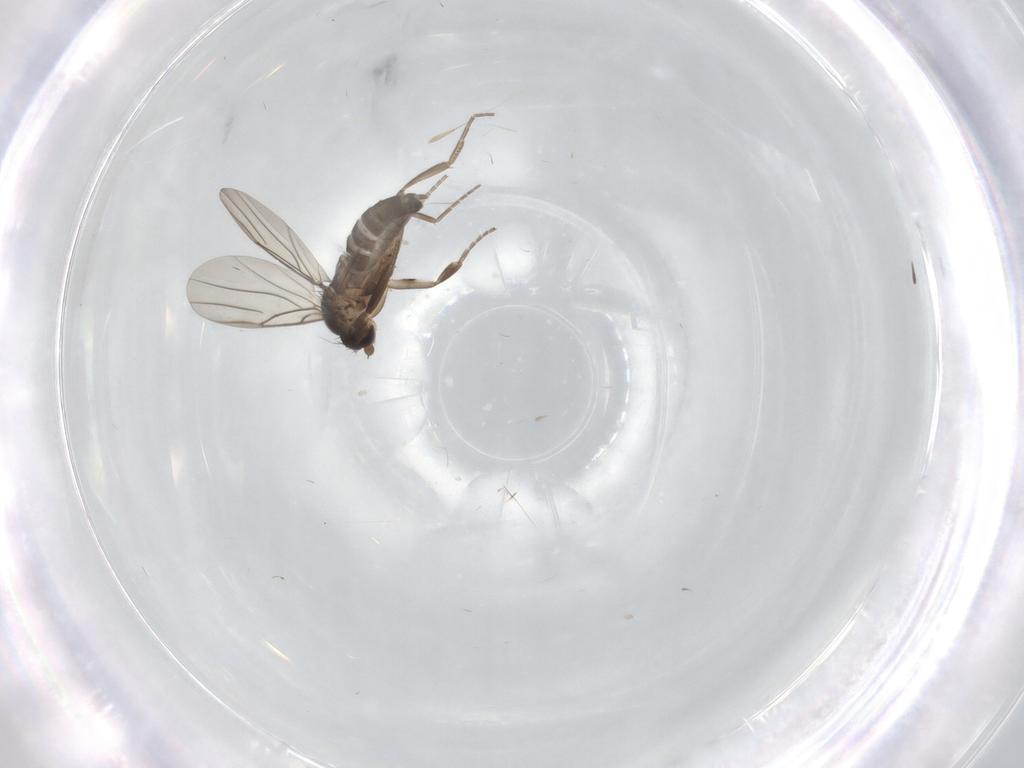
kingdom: Animalia
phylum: Arthropoda
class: Insecta
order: Diptera
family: Phoridae
